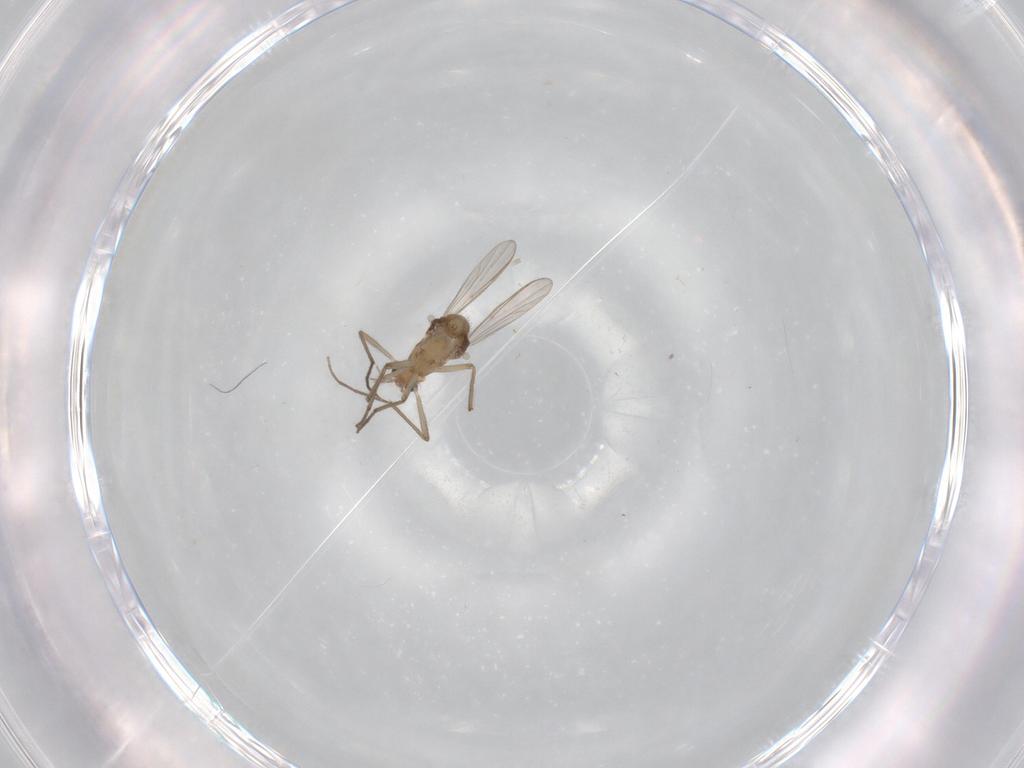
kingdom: Animalia
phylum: Arthropoda
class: Insecta
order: Diptera
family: Chironomidae
